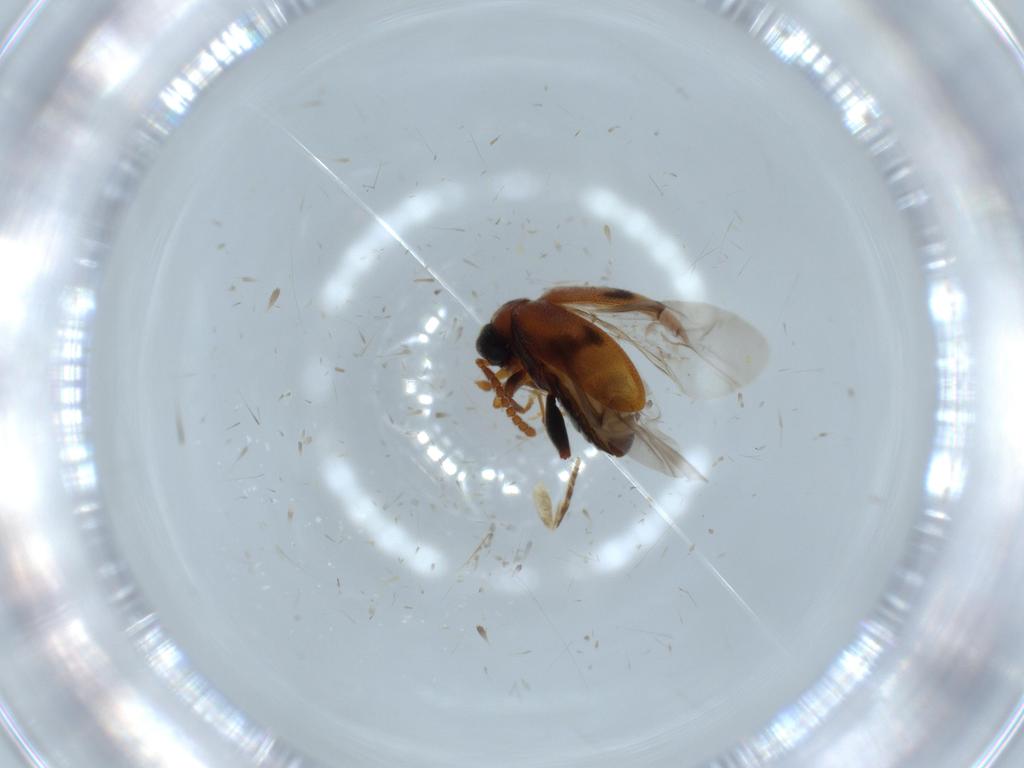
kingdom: Animalia
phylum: Arthropoda
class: Insecta
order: Coleoptera
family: Aderidae
